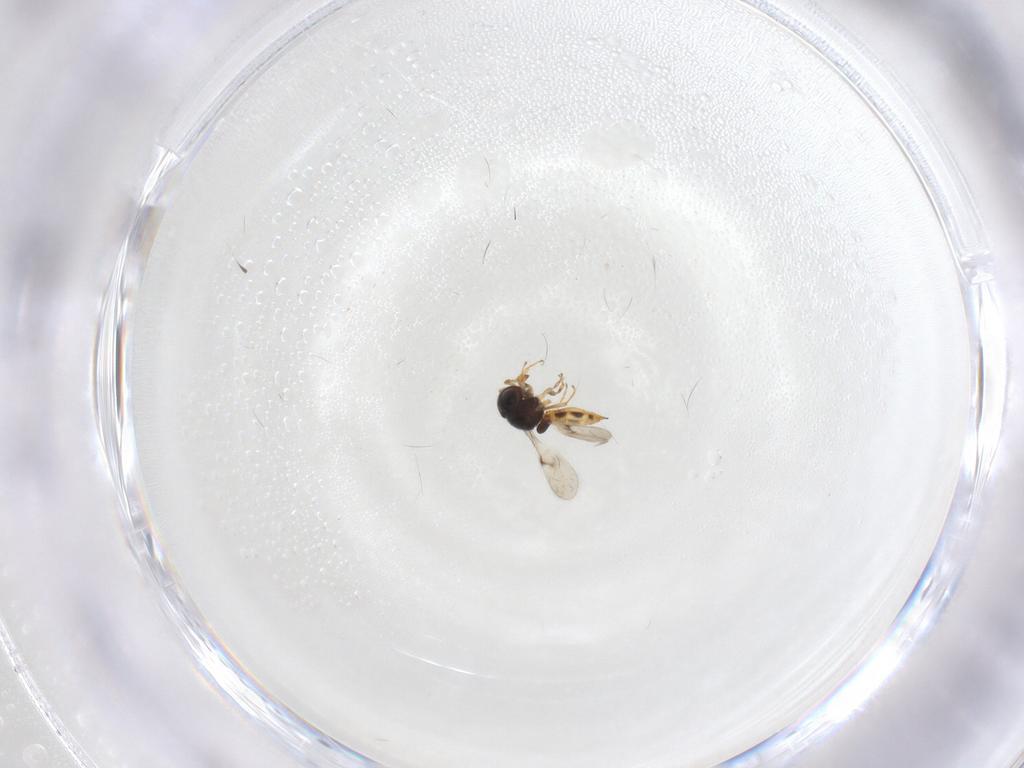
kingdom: Animalia
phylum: Arthropoda
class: Insecta
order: Hymenoptera
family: Scelionidae
